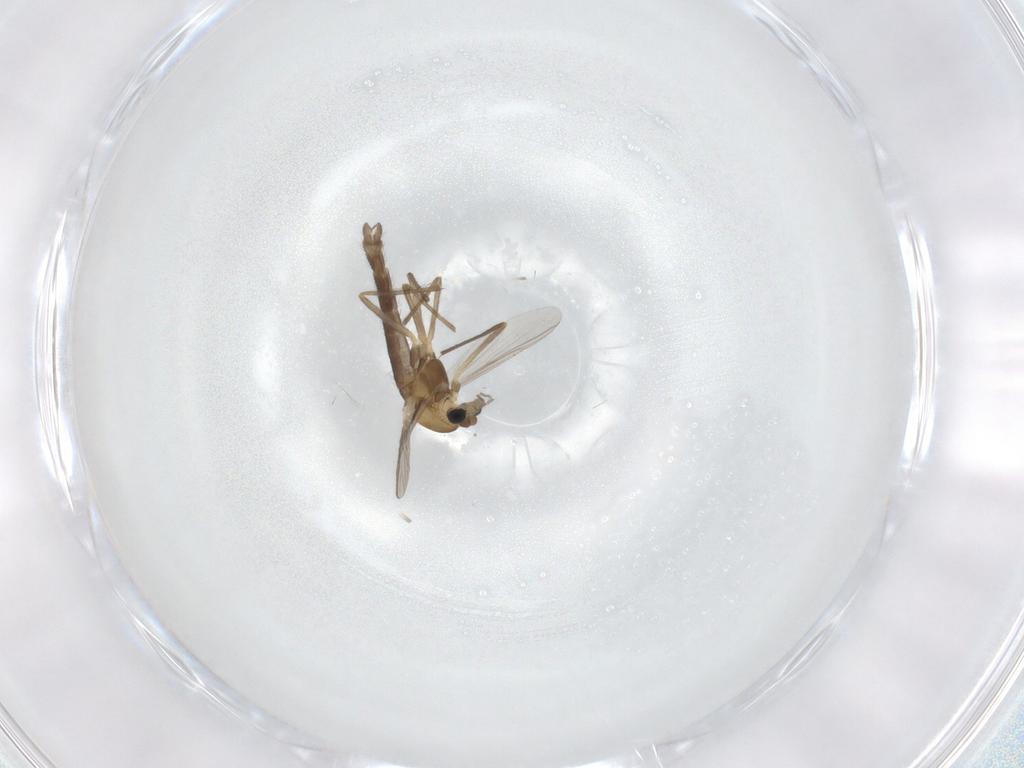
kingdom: Animalia
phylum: Arthropoda
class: Insecta
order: Diptera
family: Chironomidae
